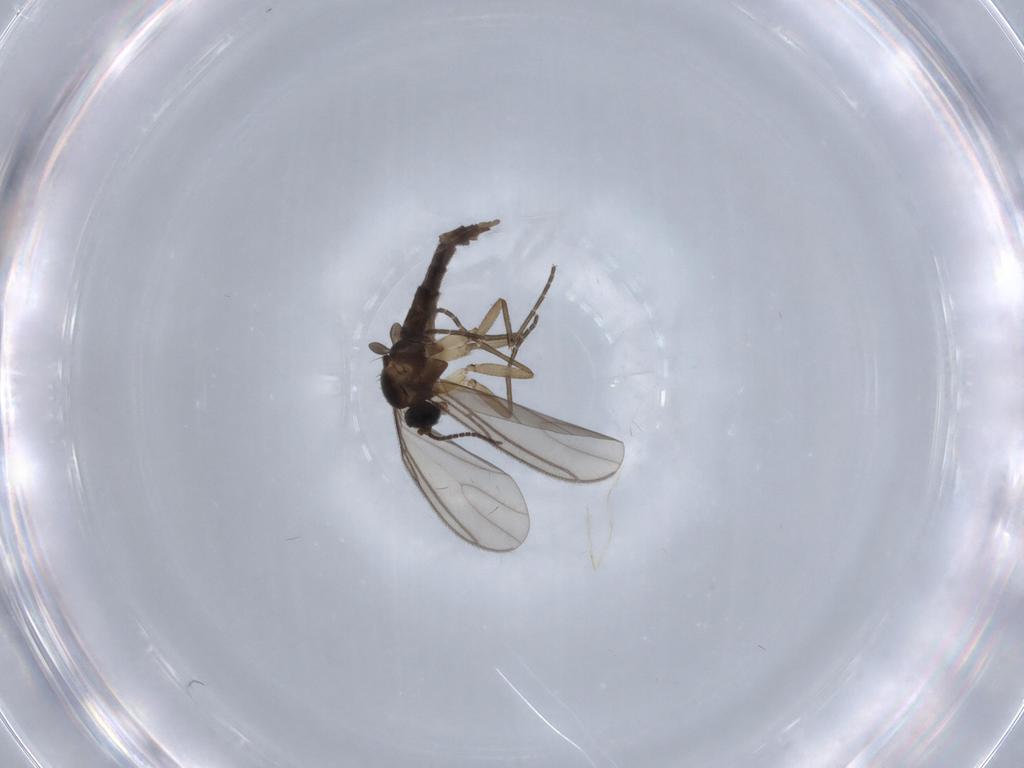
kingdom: Animalia
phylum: Arthropoda
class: Insecta
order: Diptera
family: Sciaridae
